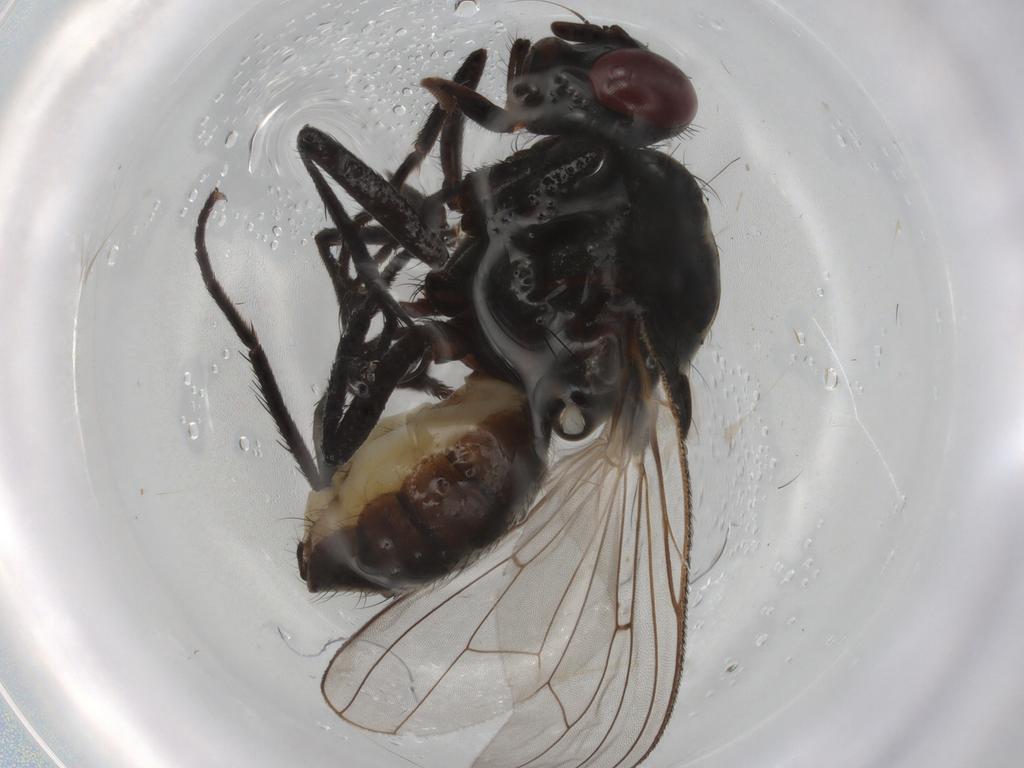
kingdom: Animalia
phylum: Arthropoda
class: Insecta
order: Diptera
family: Anthomyiidae
